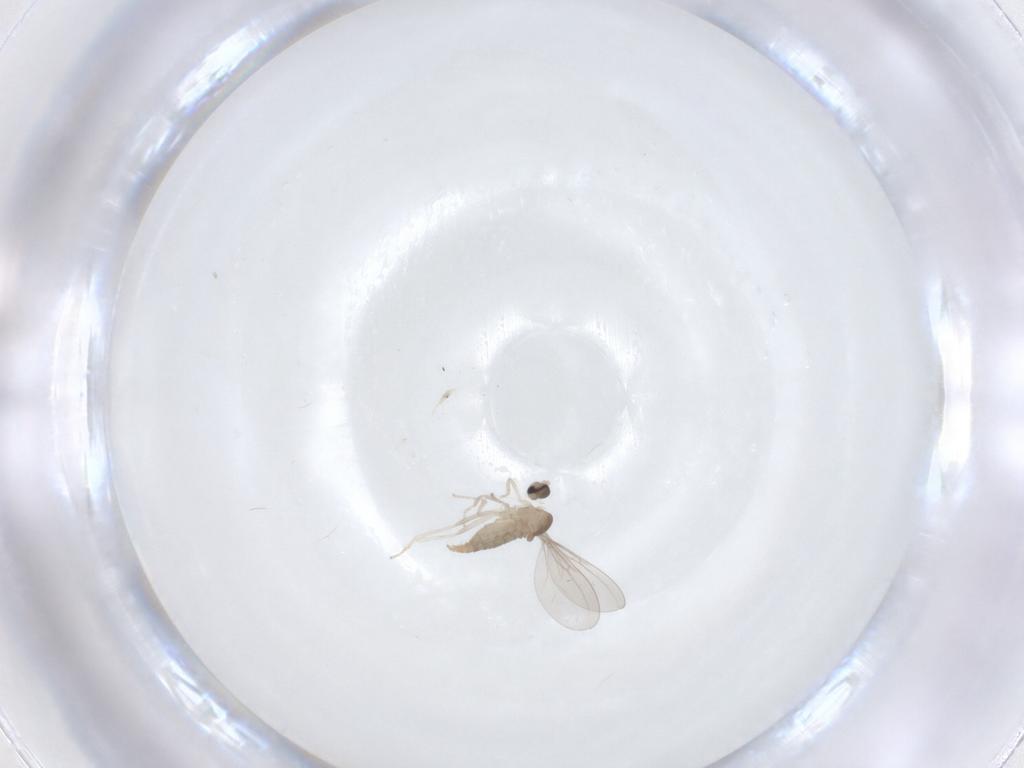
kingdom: Animalia
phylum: Arthropoda
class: Insecta
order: Diptera
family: Cecidomyiidae
